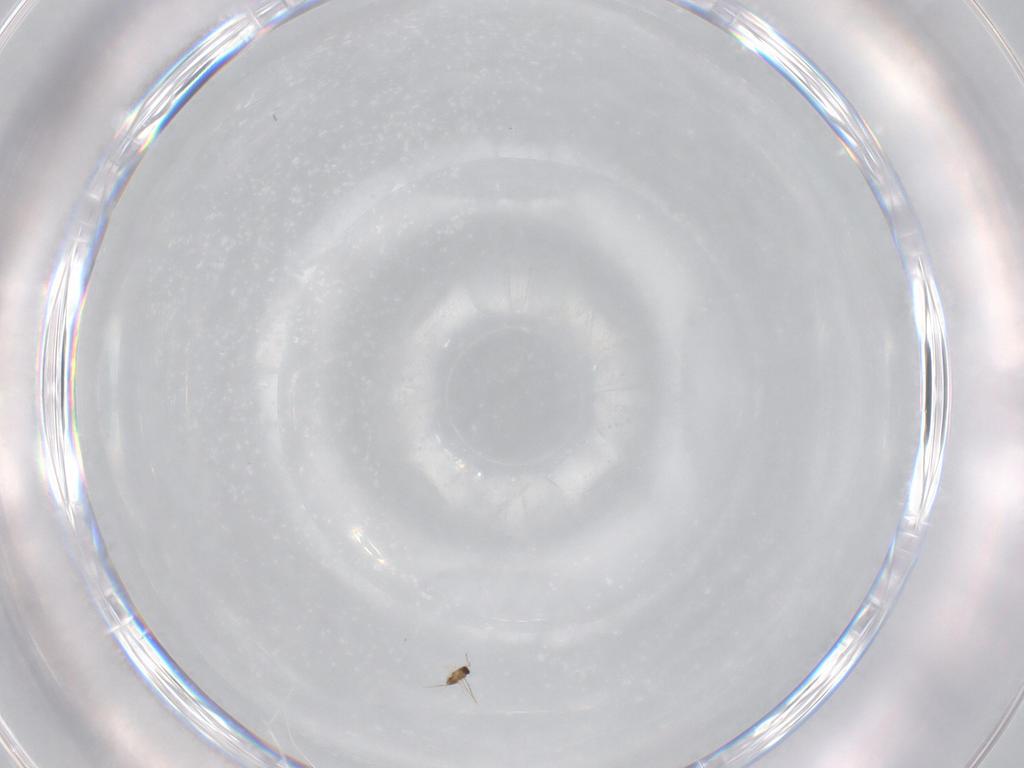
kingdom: Animalia
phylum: Arthropoda
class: Insecta
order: Hymenoptera
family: Mymaridae
